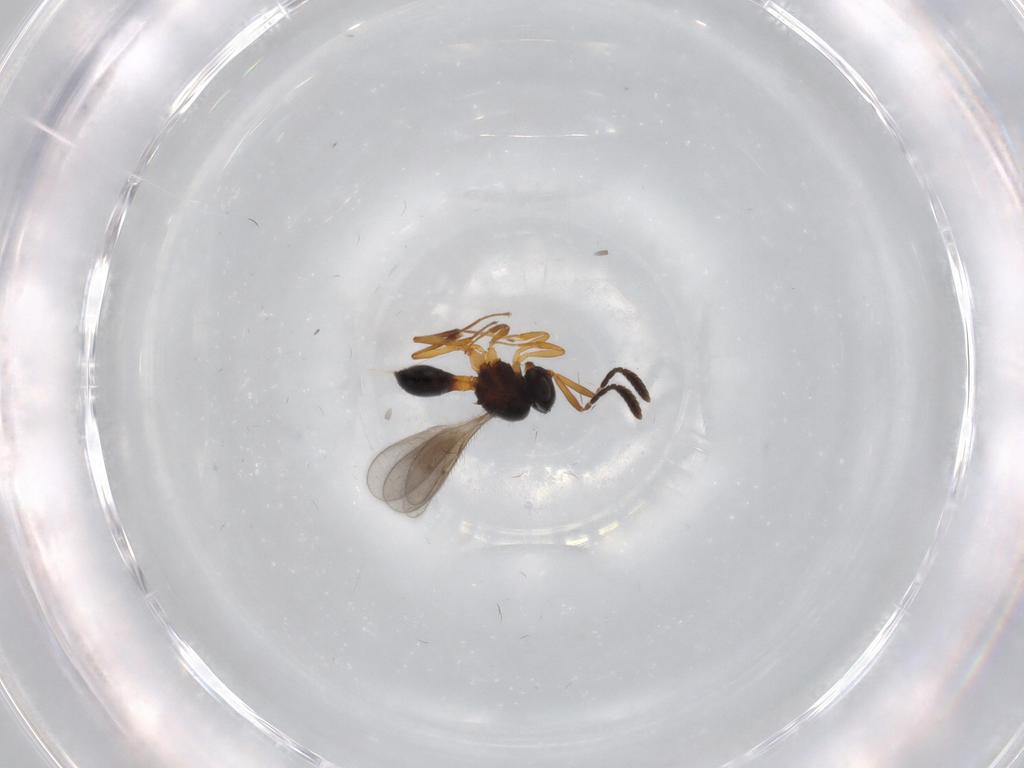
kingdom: Animalia
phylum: Arthropoda
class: Insecta
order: Hymenoptera
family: Scelionidae
